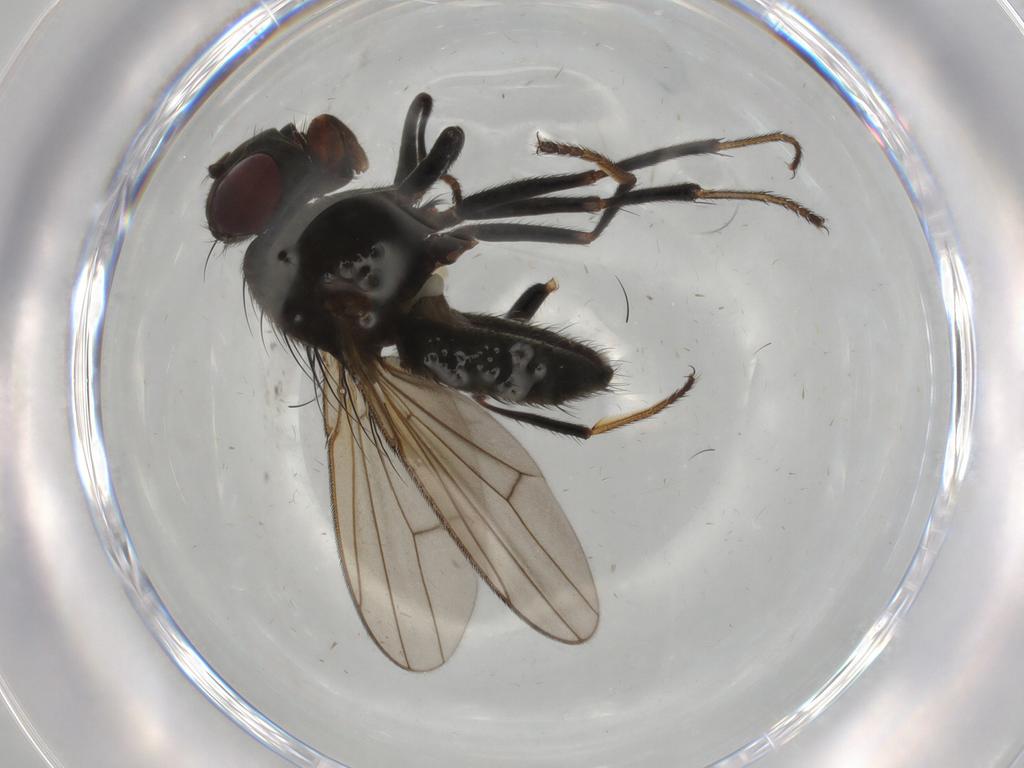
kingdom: Animalia
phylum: Arthropoda
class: Insecta
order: Diptera
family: Ephydridae
